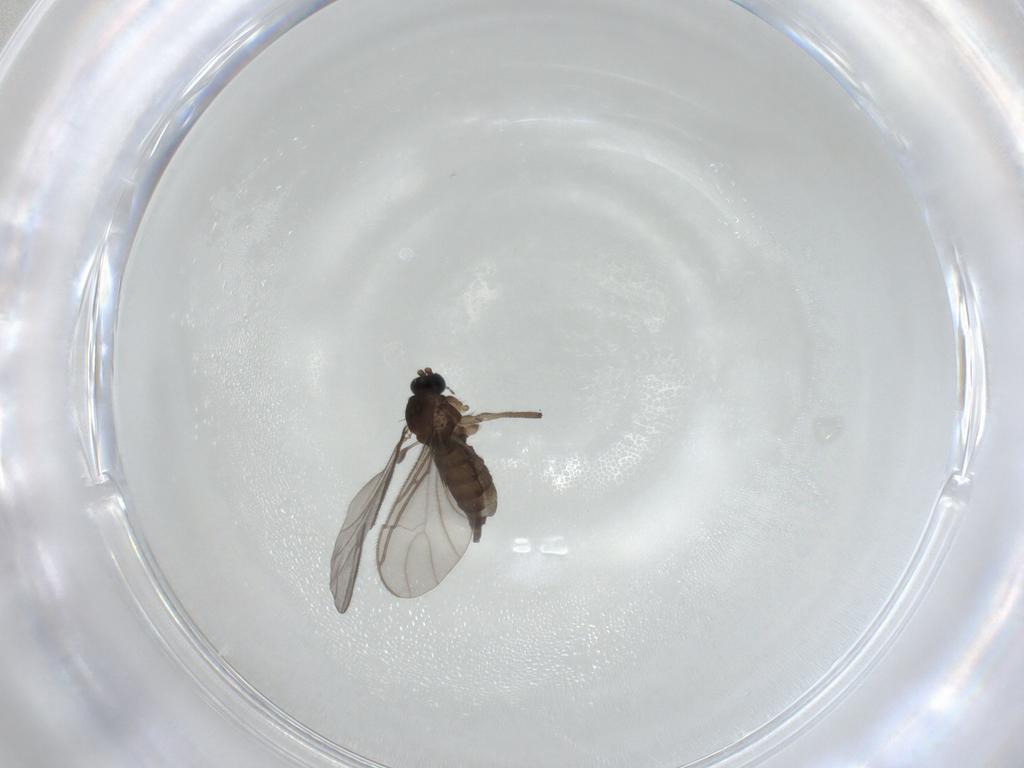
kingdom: Animalia
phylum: Arthropoda
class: Insecta
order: Diptera
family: Sciaridae
